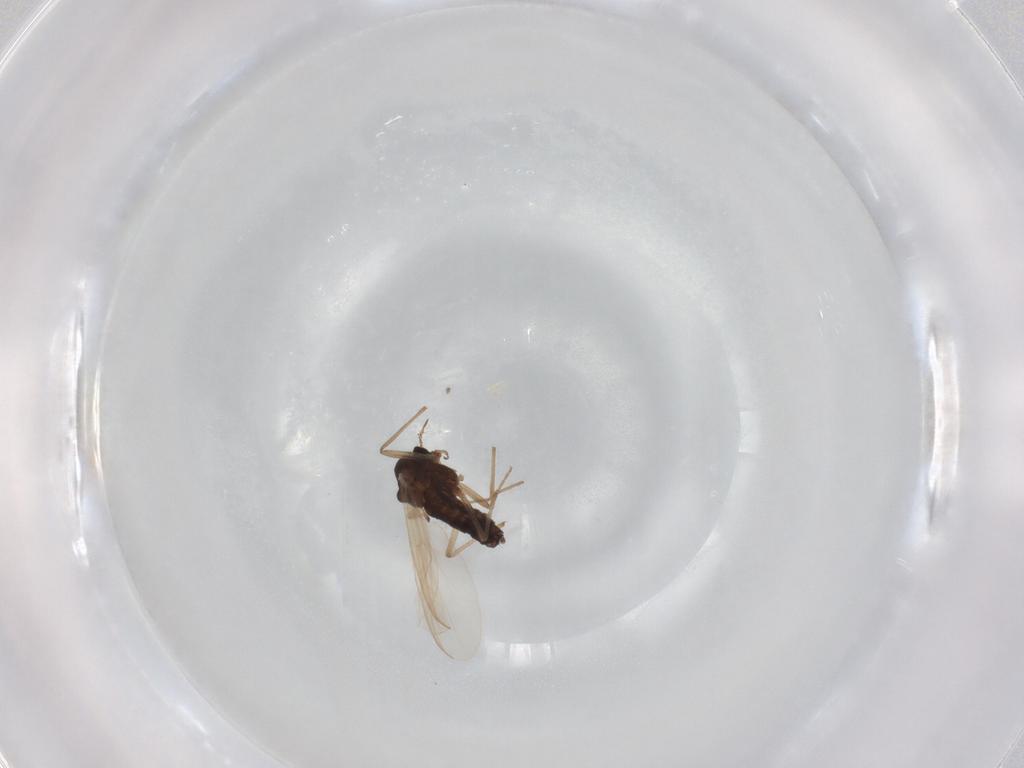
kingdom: Animalia
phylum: Arthropoda
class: Insecta
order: Diptera
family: Chironomidae
